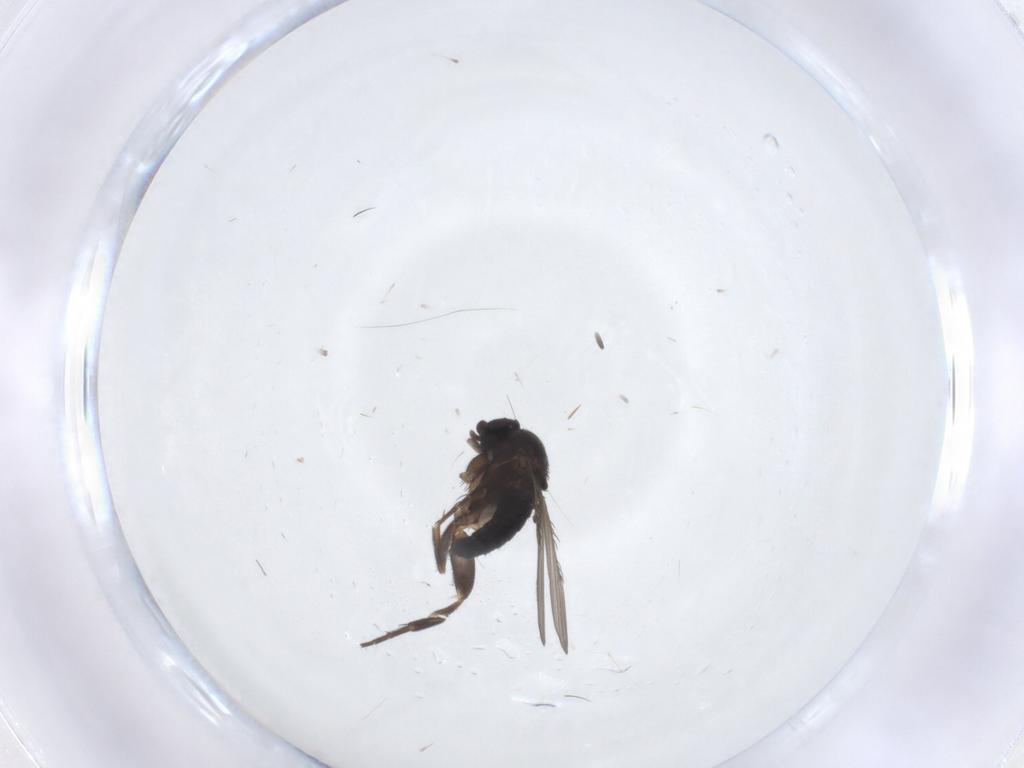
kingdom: Animalia
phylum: Arthropoda
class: Insecta
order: Diptera
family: Phoridae
